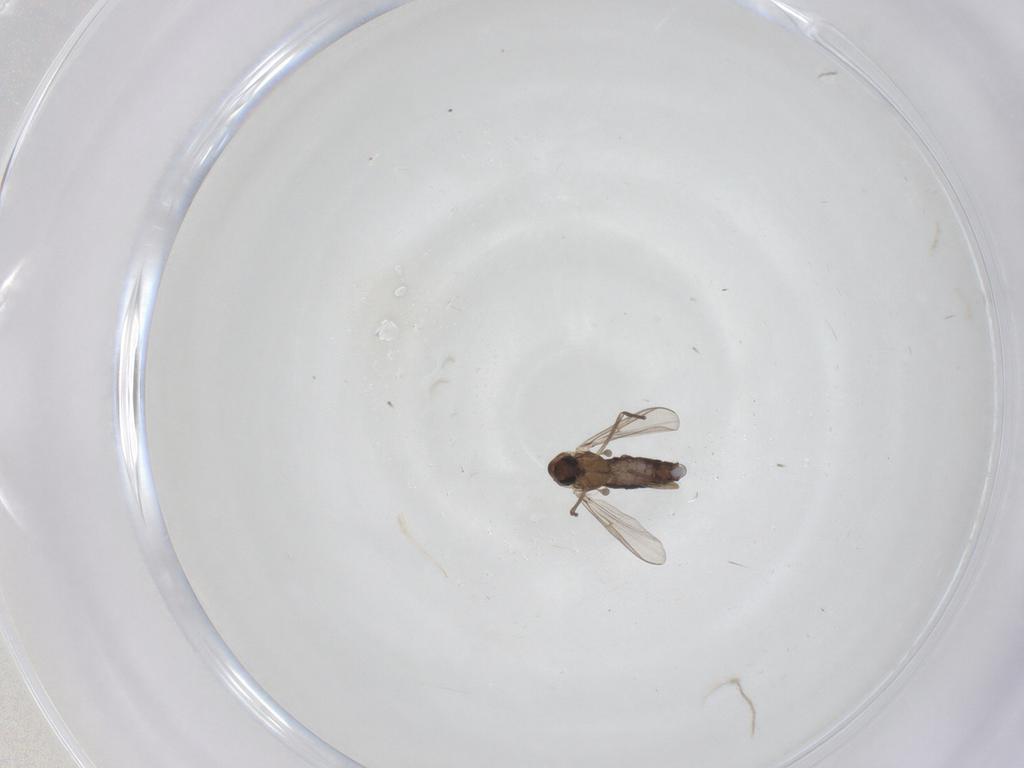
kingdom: Animalia
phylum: Arthropoda
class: Insecta
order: Diptera
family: Chironomidae
